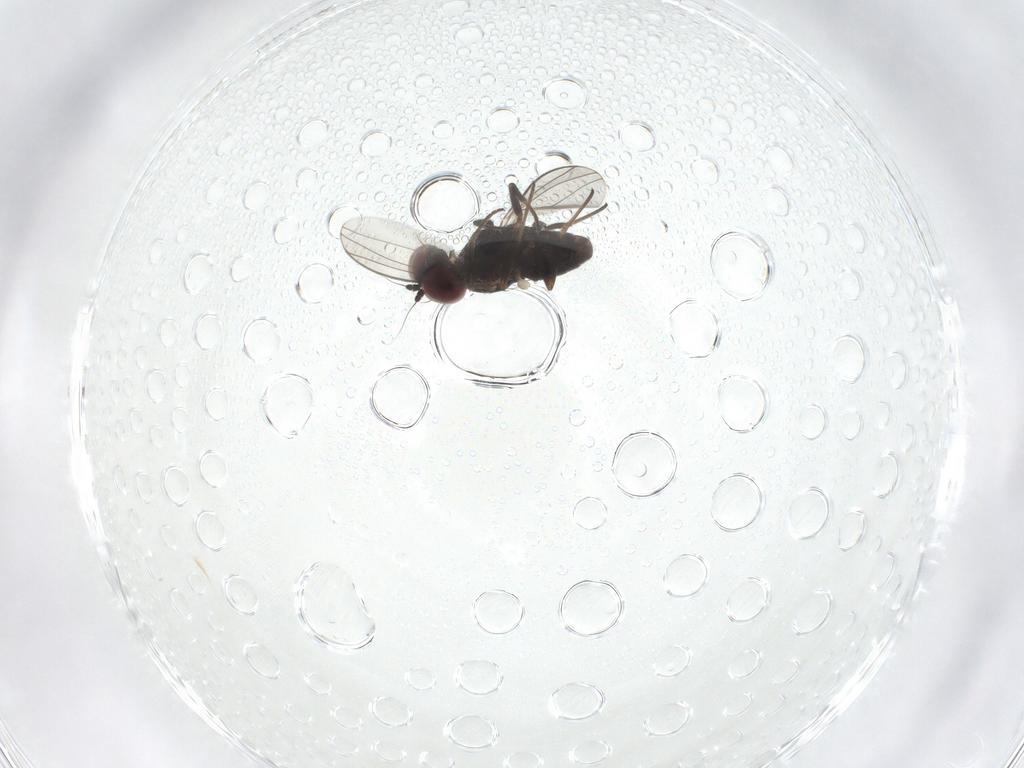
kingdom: Animalia
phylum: Arthropoda
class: Insecta
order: Diptera
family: Dolichopodidae
